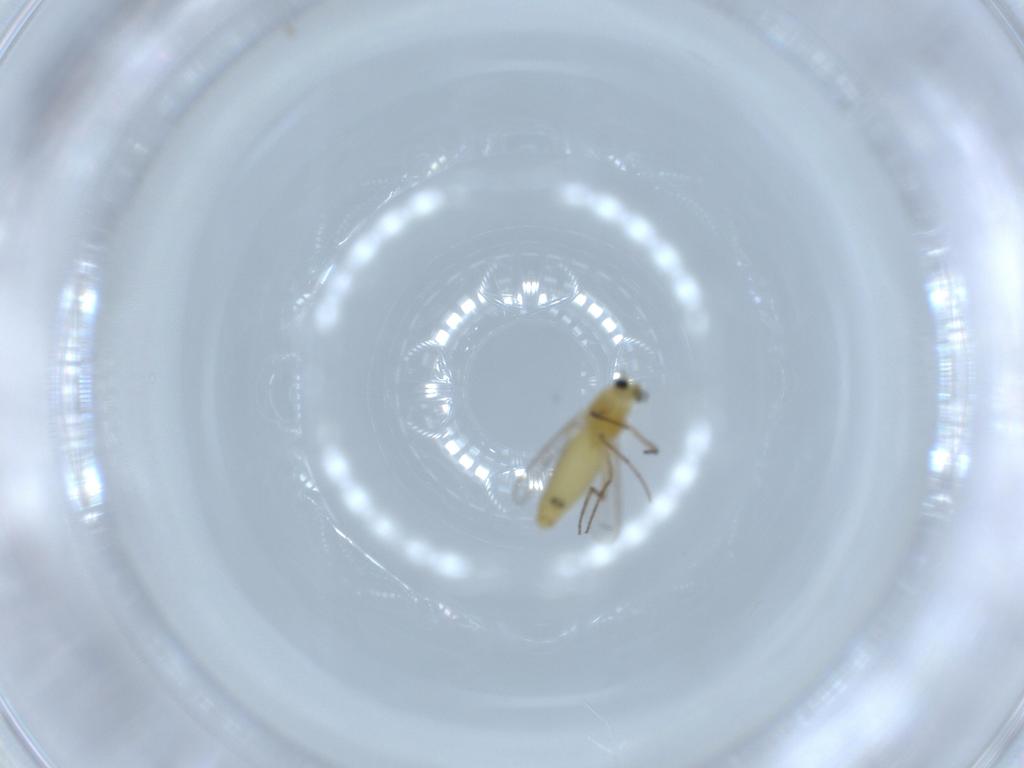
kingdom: Animalia
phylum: Arthropoda
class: Insecta
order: Diptera
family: Chironomidae
